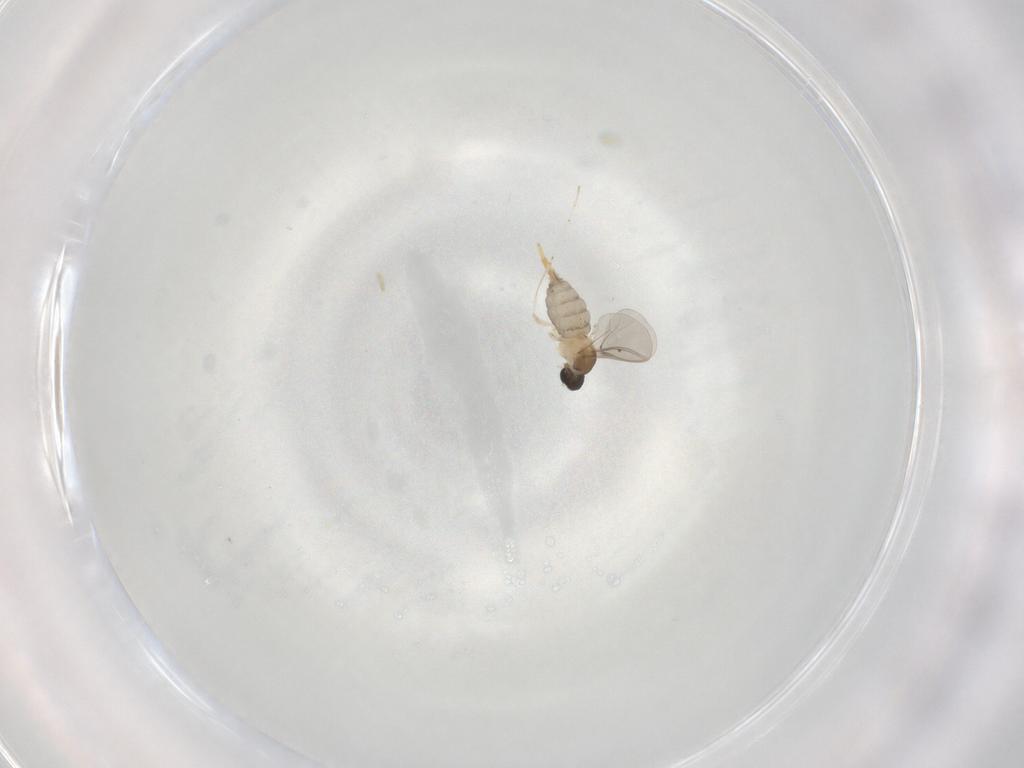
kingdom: Animalia
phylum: Arthropoda
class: Insecta
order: Diptera
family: Cecidomyiidae
